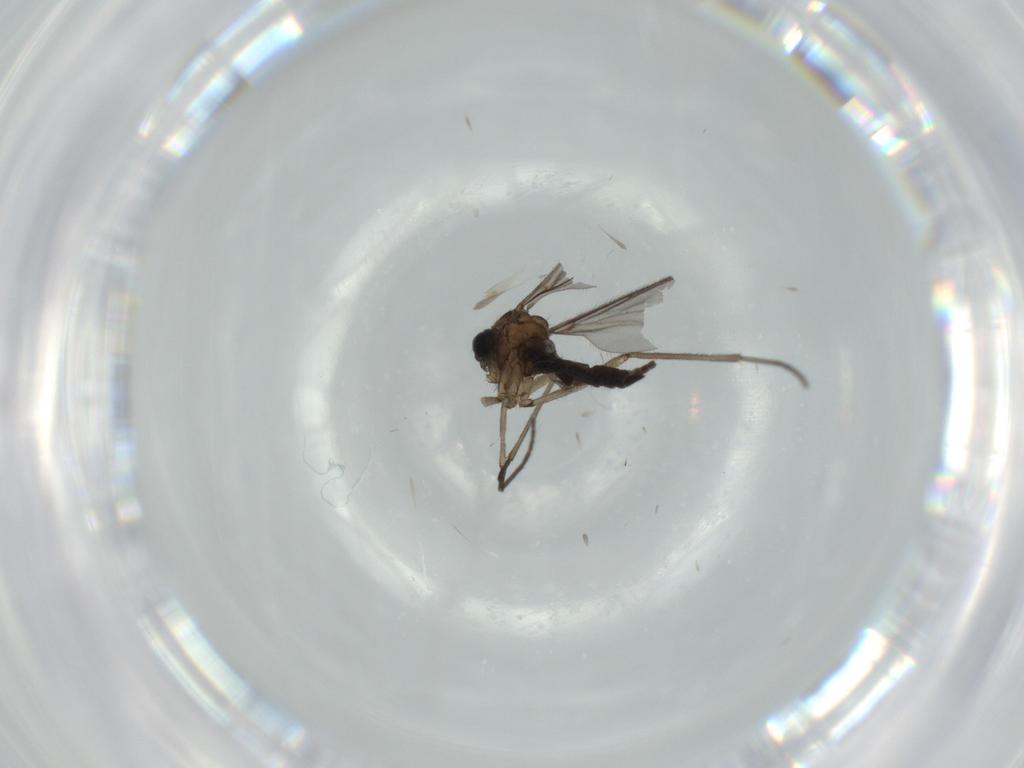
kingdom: Animalia
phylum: Arthropoda
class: Insecta
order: Diptera
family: Sciaridae
